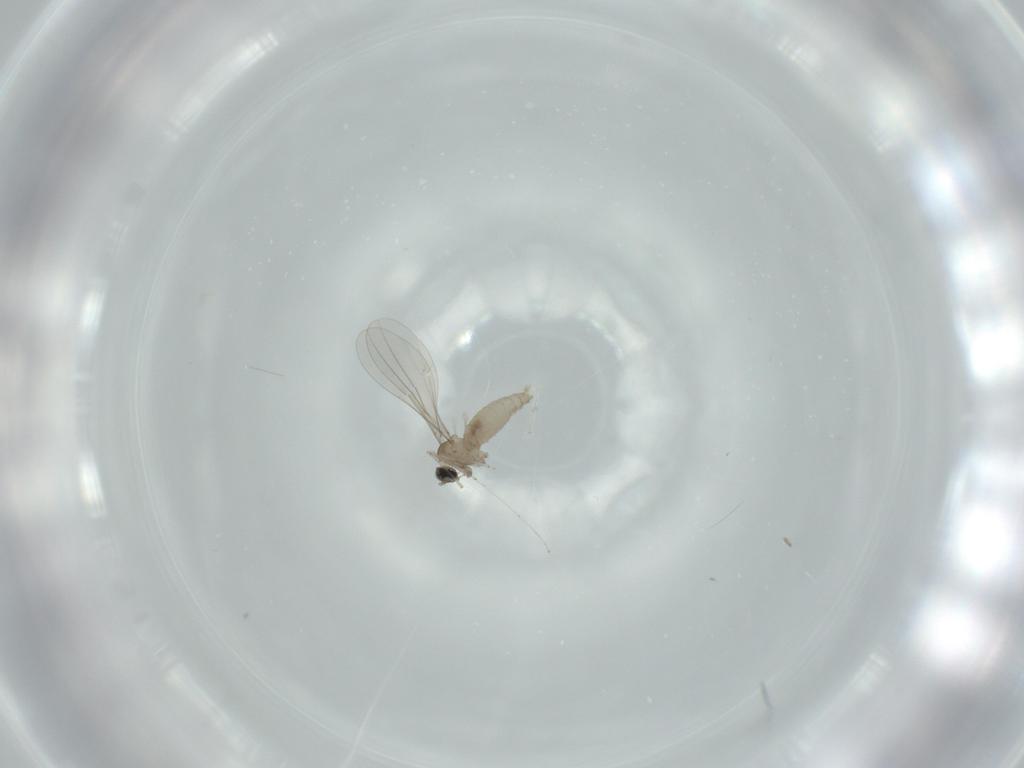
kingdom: Animalia
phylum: Arthropoda
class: Insecta
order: Diptera
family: Cecidomyiidae
